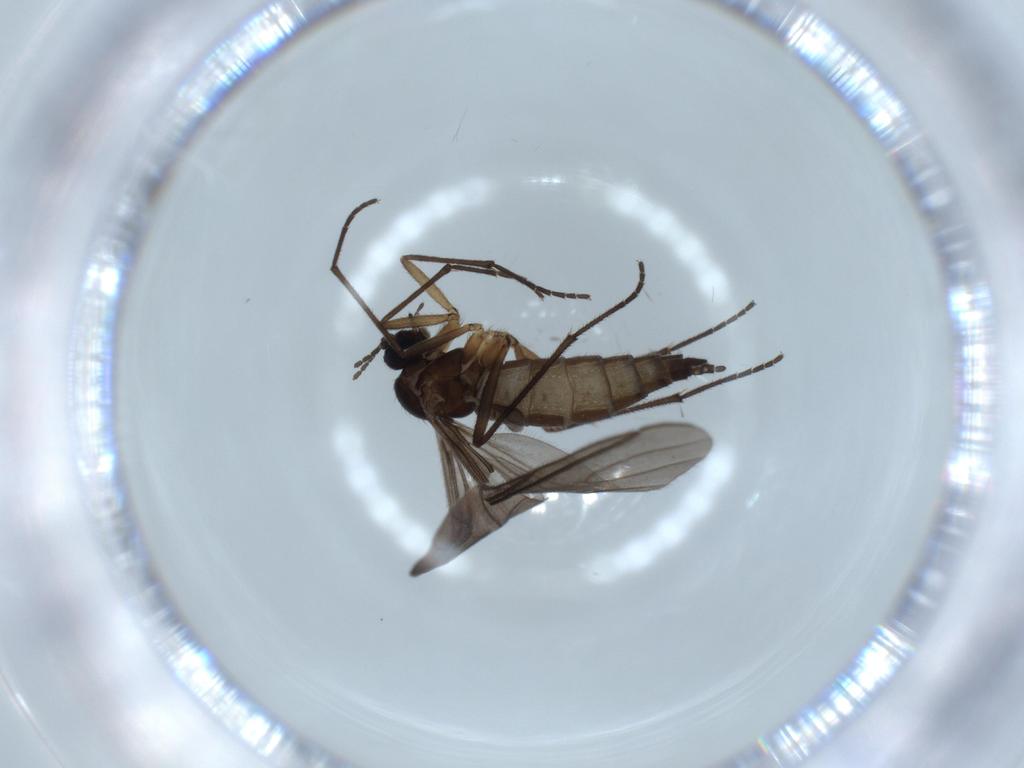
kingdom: Animalia
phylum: Arthropoda
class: Insecta
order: Diptera
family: Sciaridae
